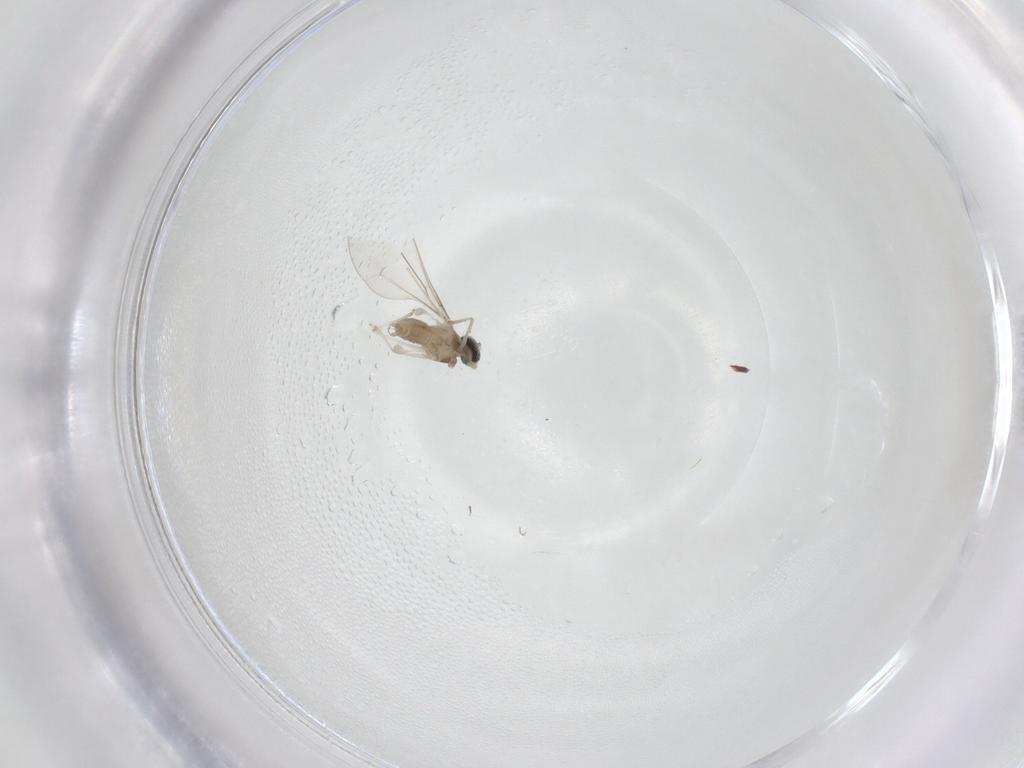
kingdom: Animalia
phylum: Arthropoda
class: Insecta
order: Diptera
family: Cecidomyiidae
